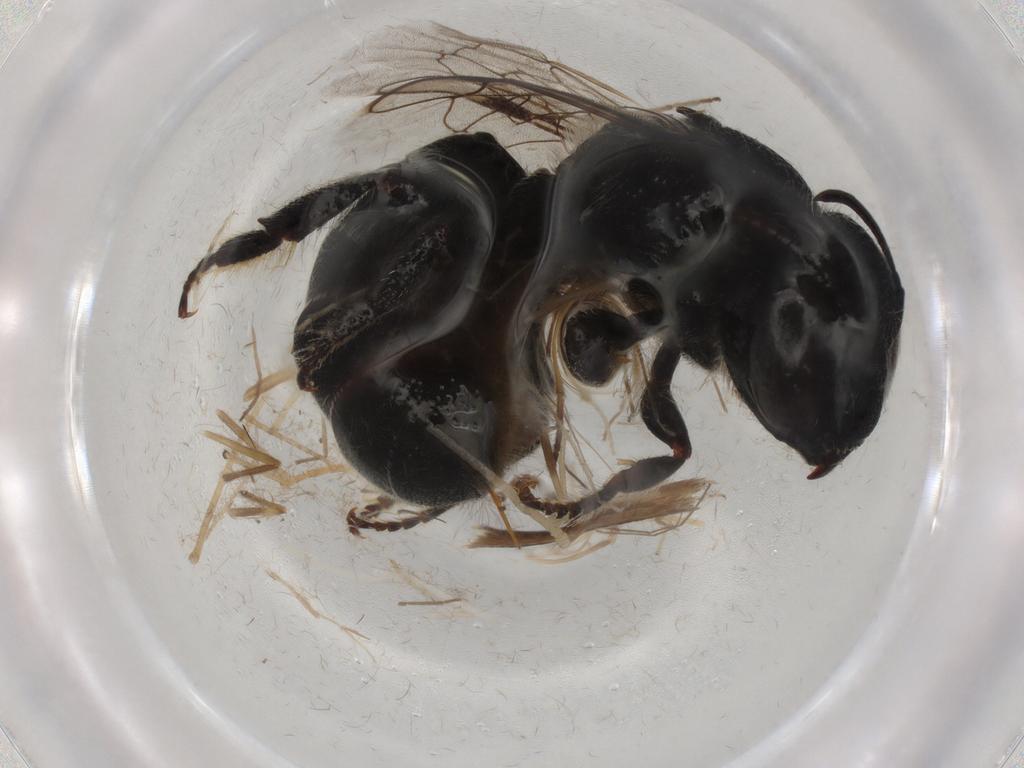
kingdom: Animalia
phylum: Arthropoda
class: Insecta
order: Hymenoptera
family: Megachilidae
